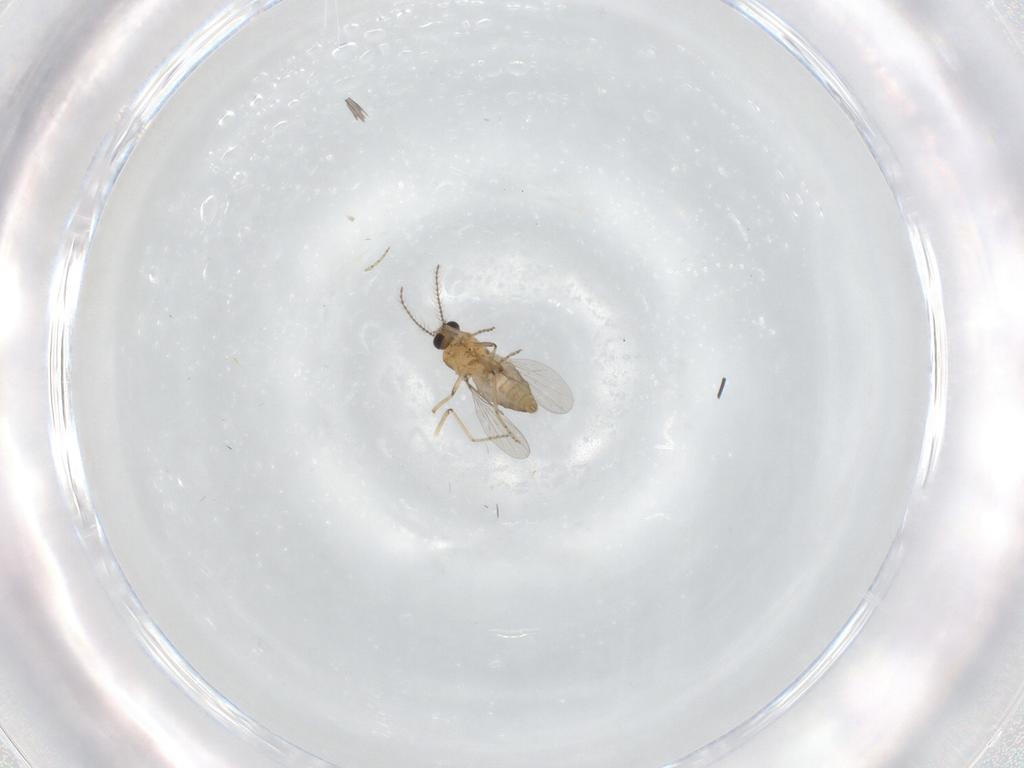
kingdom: Animalia
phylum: Arthropoda
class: Insecta
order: Diptera
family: Ceratopogonidae
